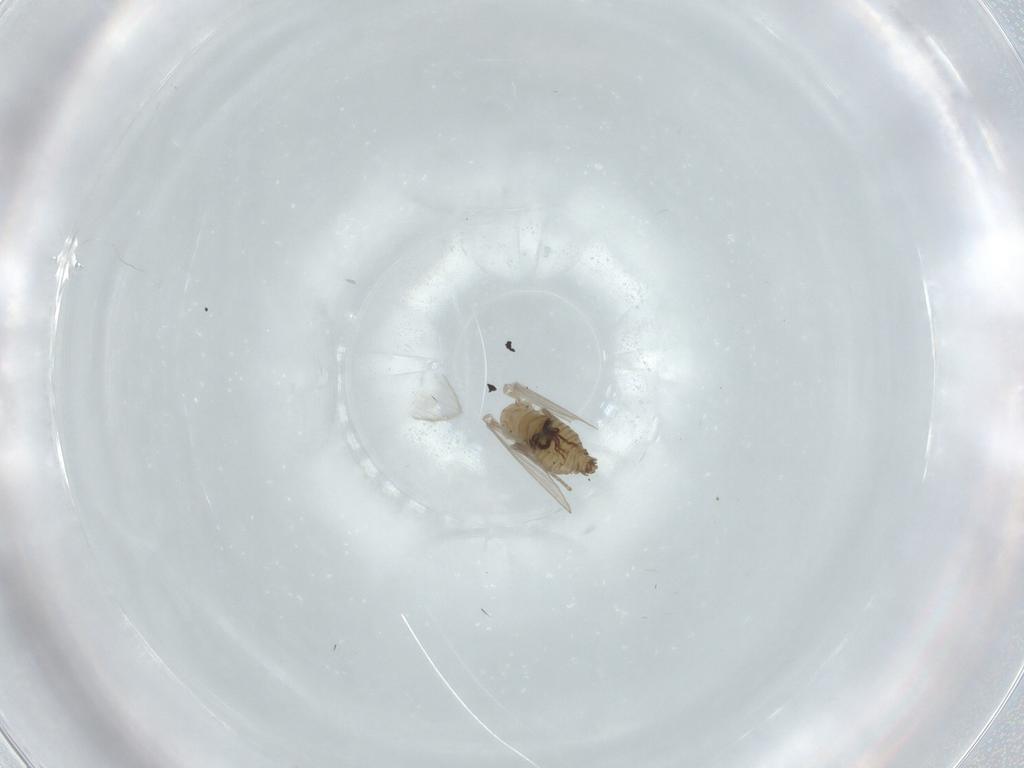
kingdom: Animalia
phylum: Arthropoda
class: Insecta
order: Diptera
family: Psychodidae
